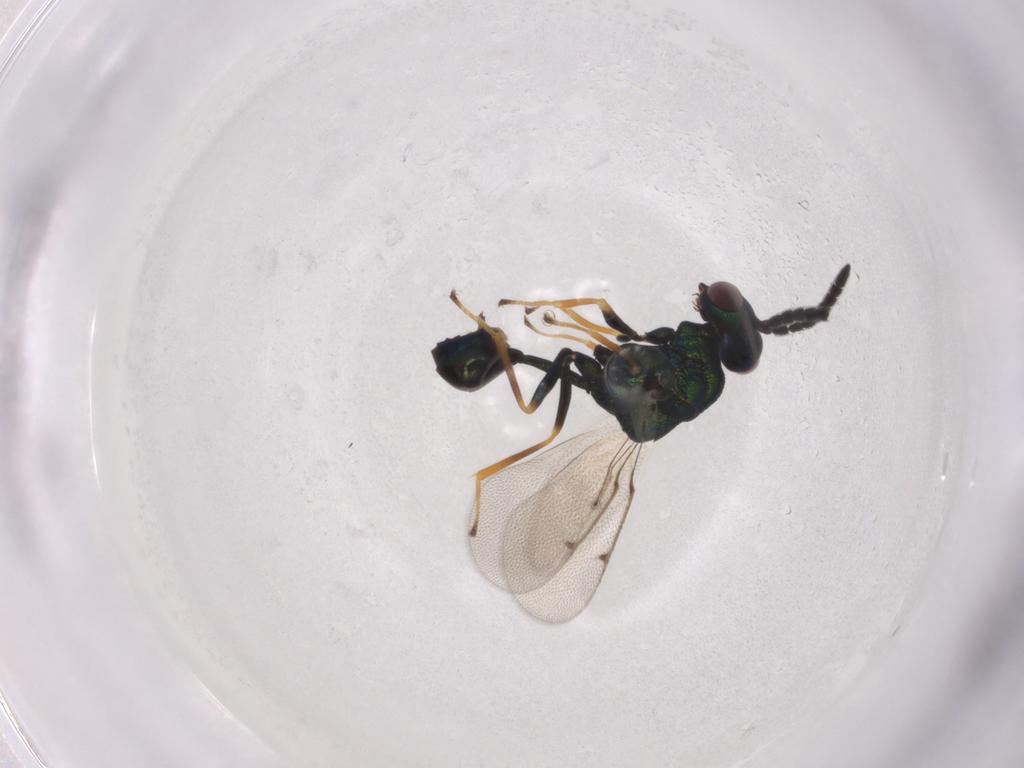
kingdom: Animalia
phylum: Arthropoda
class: Insecta
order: Hymenoptera
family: Eucharitidae
